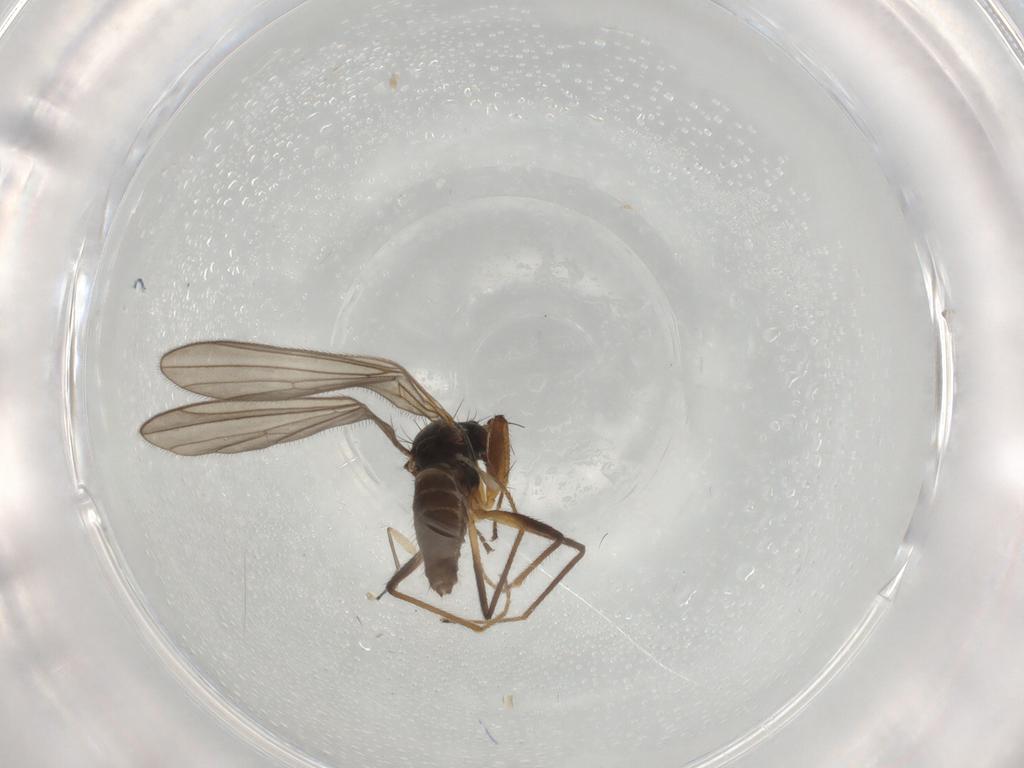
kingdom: Animalia
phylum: Arthropoda
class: Insecta
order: Diptera
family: Empididae
